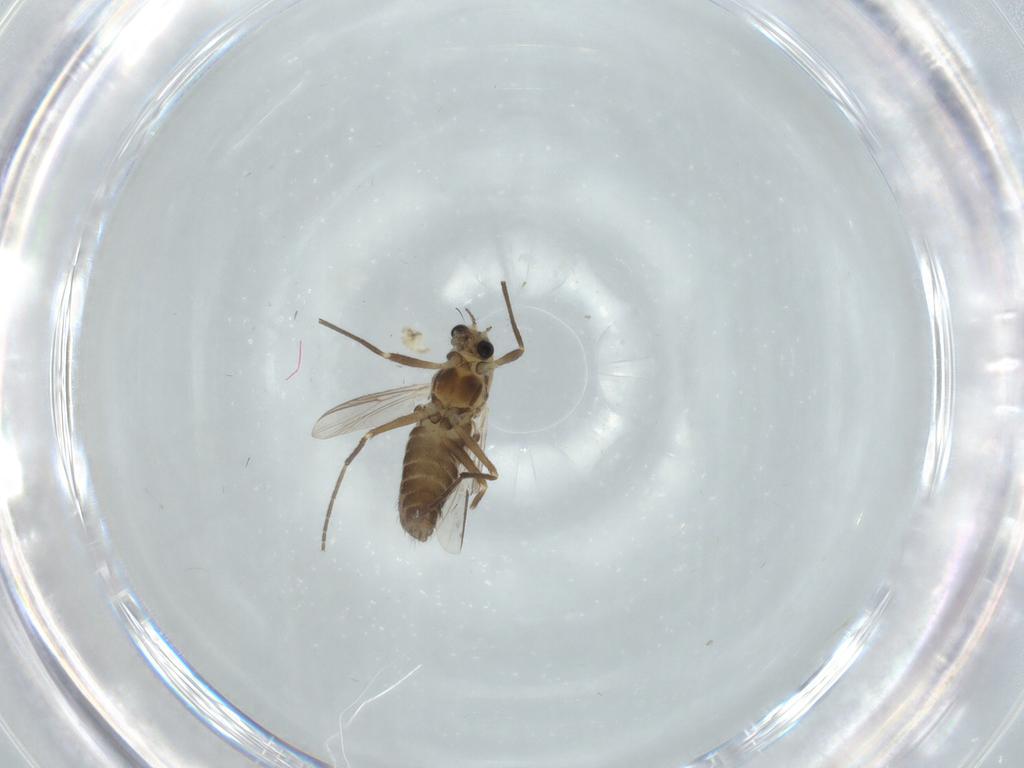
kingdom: Animalia
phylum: Arthropoda
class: Insecta
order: Diptera
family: Chironomidae
